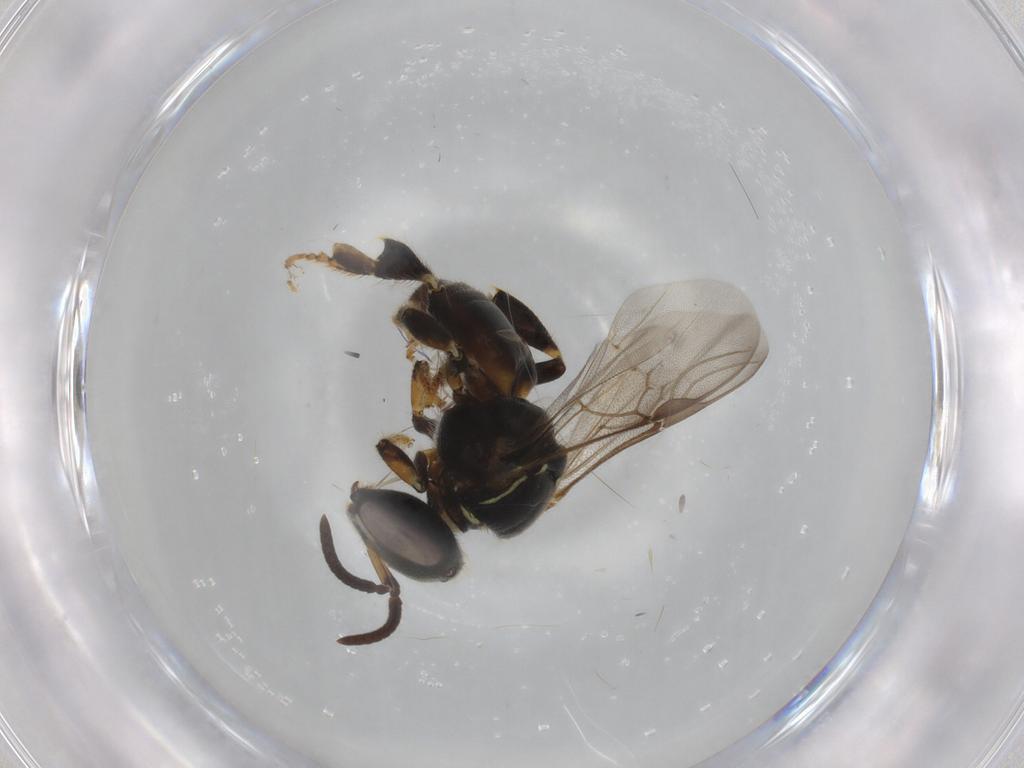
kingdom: Animalia
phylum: Arthropoda
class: Insecta
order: Hymenoptera
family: Apidae
